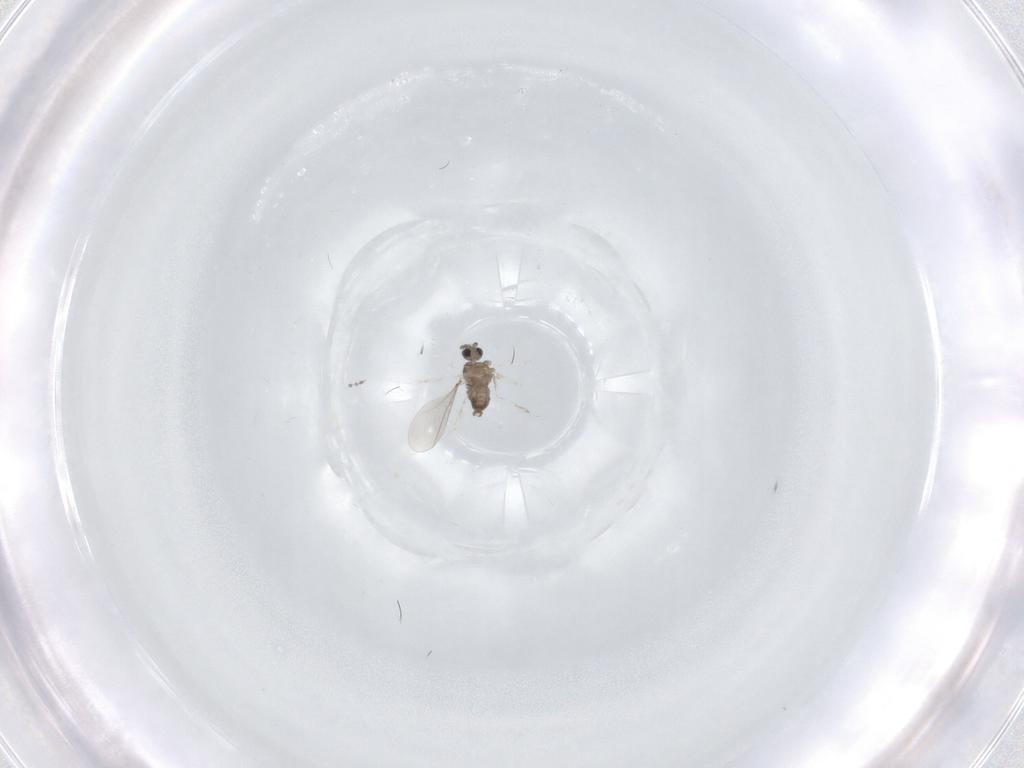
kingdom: Animalia
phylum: Arthropoda
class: Insecta
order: Diptera
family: Cecidomyiidae
